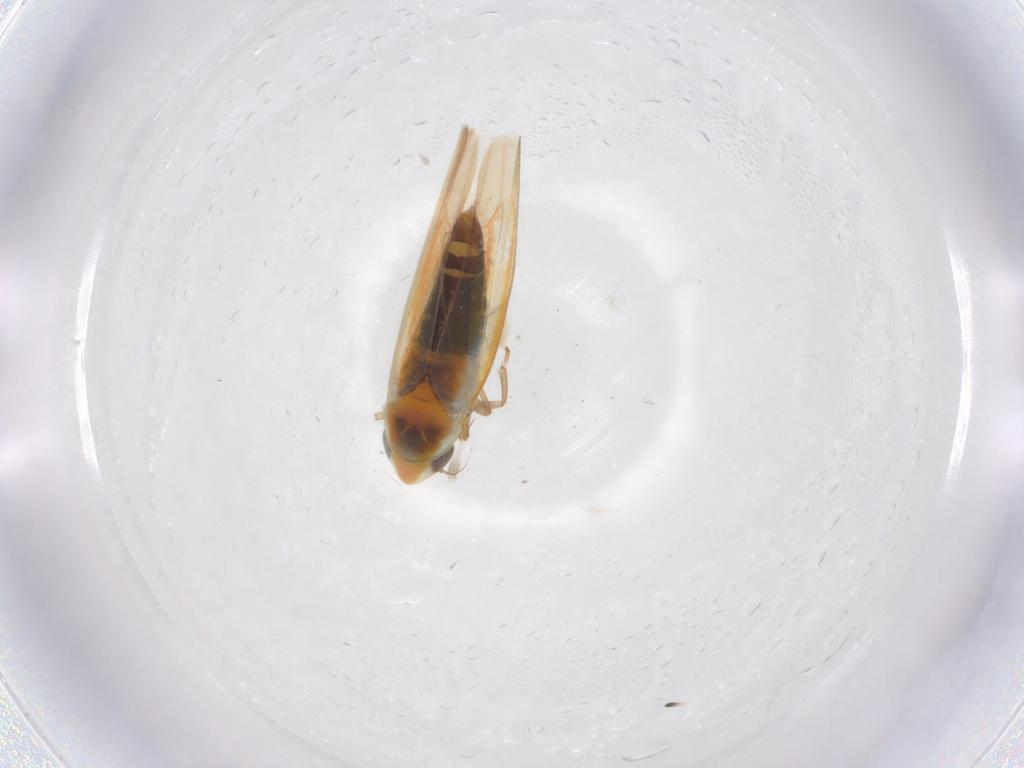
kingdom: Animalia
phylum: Arthropoda
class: Insecta
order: Hemiptera
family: Cicadellidae
